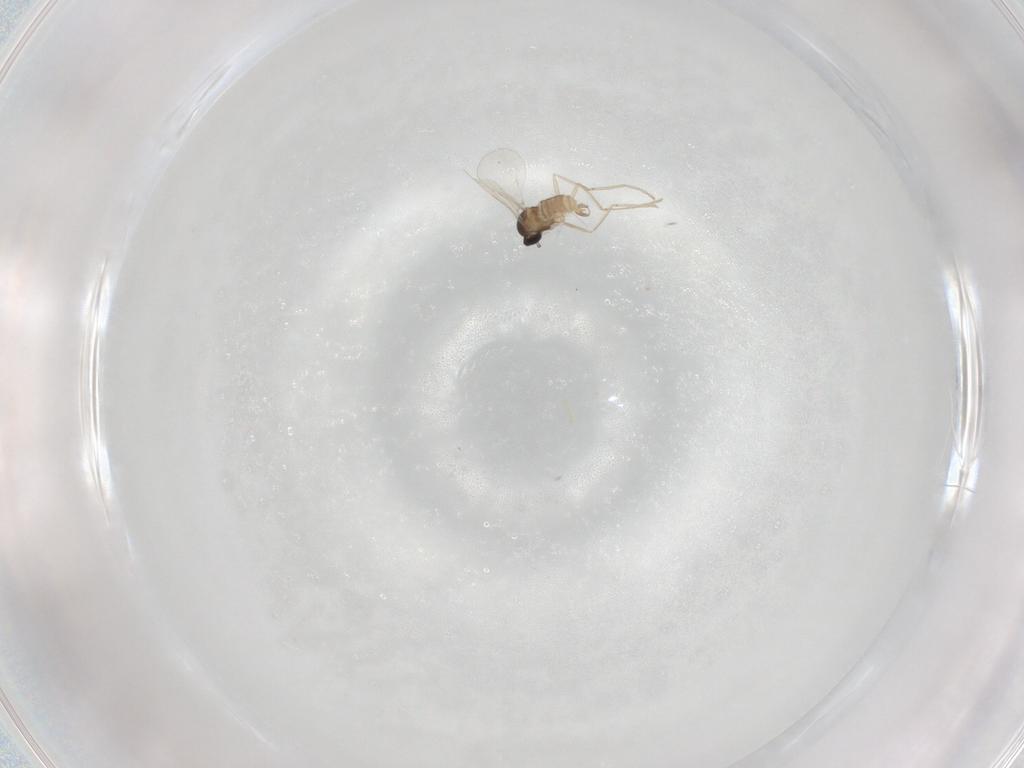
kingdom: Animalia
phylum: Arthropoda
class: Insecta
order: Diptera
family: Cecidomyiidae
